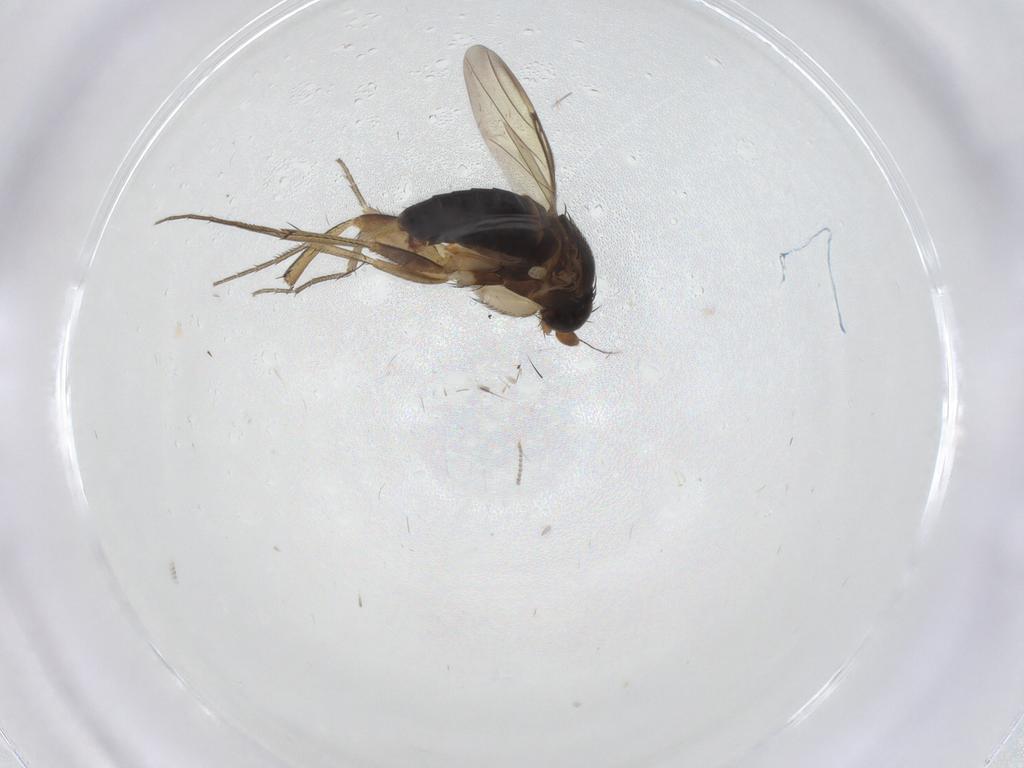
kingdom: Animalia
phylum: Arthropoda
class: Insecta
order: Diptera
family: Phoridae
